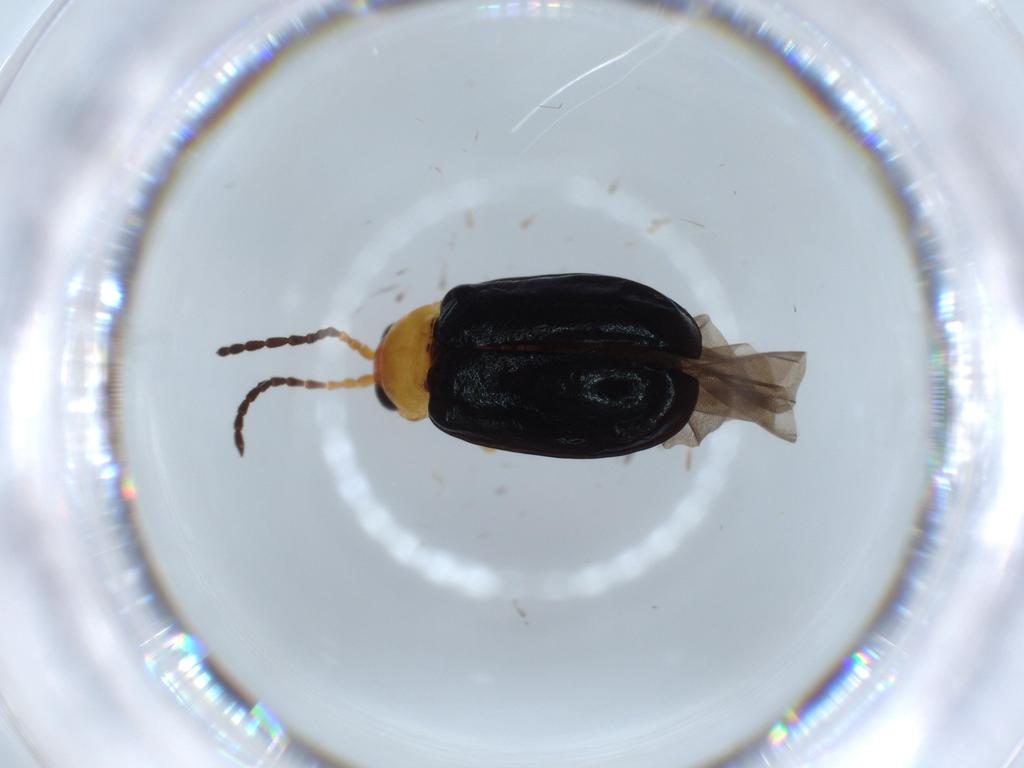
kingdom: Animalia
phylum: Arthropoda
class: Insecta
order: Coleoptera
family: Chrysomelidae
